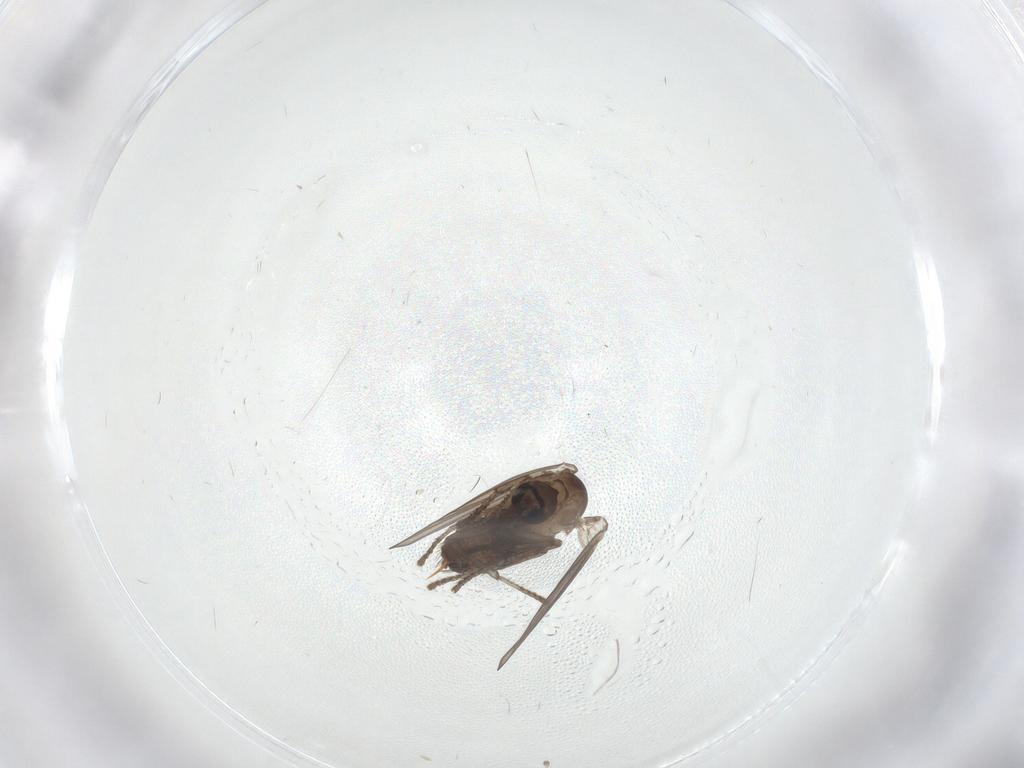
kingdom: Animalia
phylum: Arthropoda
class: Insecta
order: Diptera
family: Psychodidae
